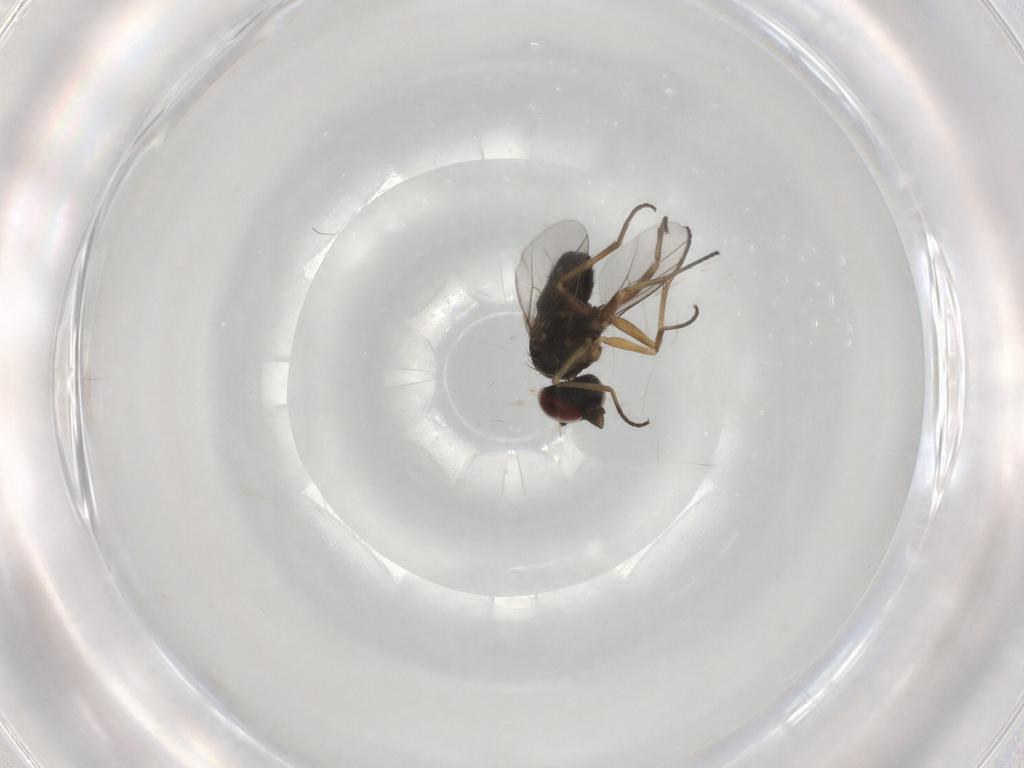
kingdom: Animalia
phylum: Arthropoda
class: Insecta
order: Diptera
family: Dolichopodidae
